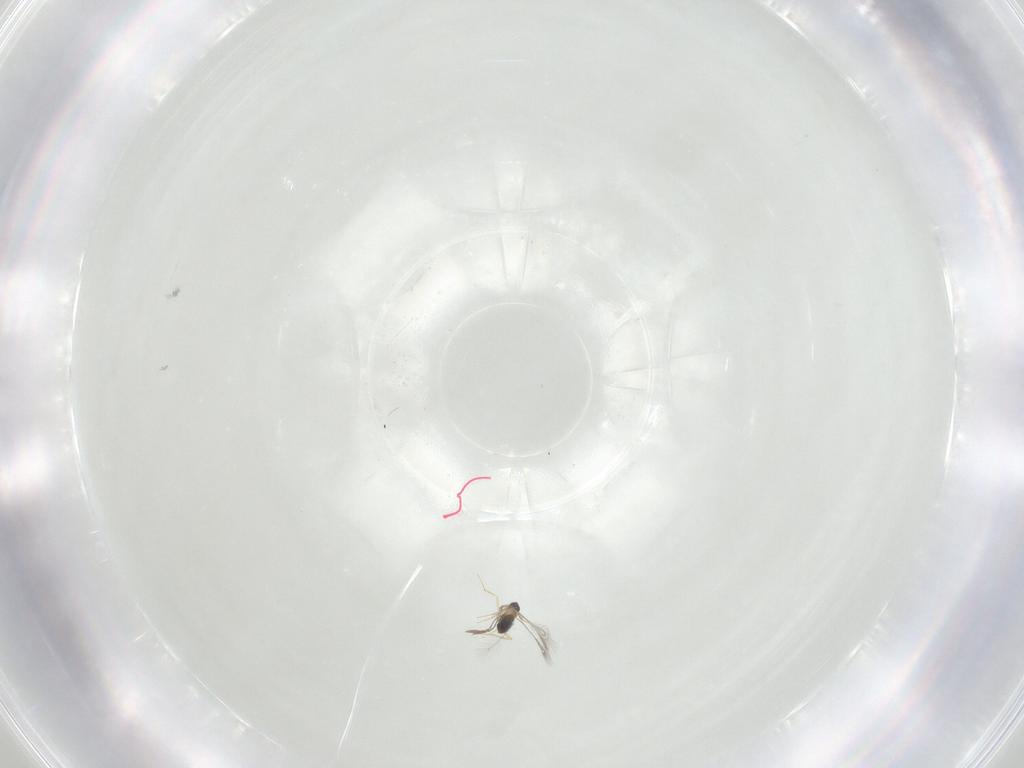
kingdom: Animalia
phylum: Arthropoda
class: Insecta
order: Hymenoptera
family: Mymaridae
